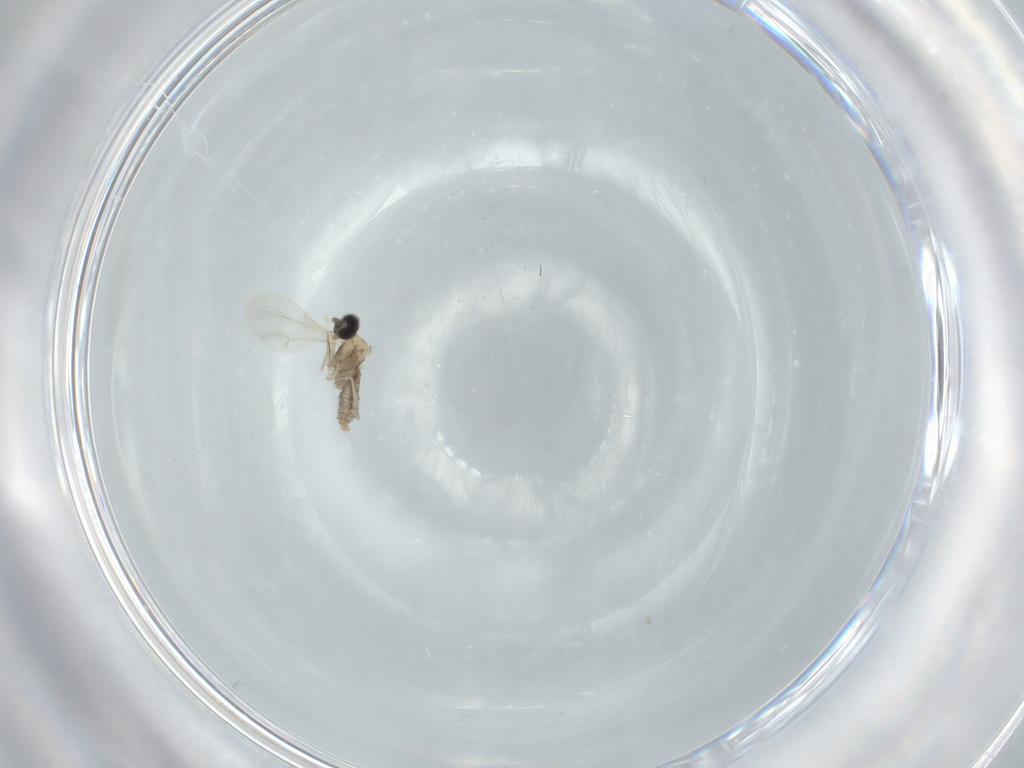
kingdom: Animalia
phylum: Arthropoda
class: Insecta
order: Diptera
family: Cecidomyiidae
